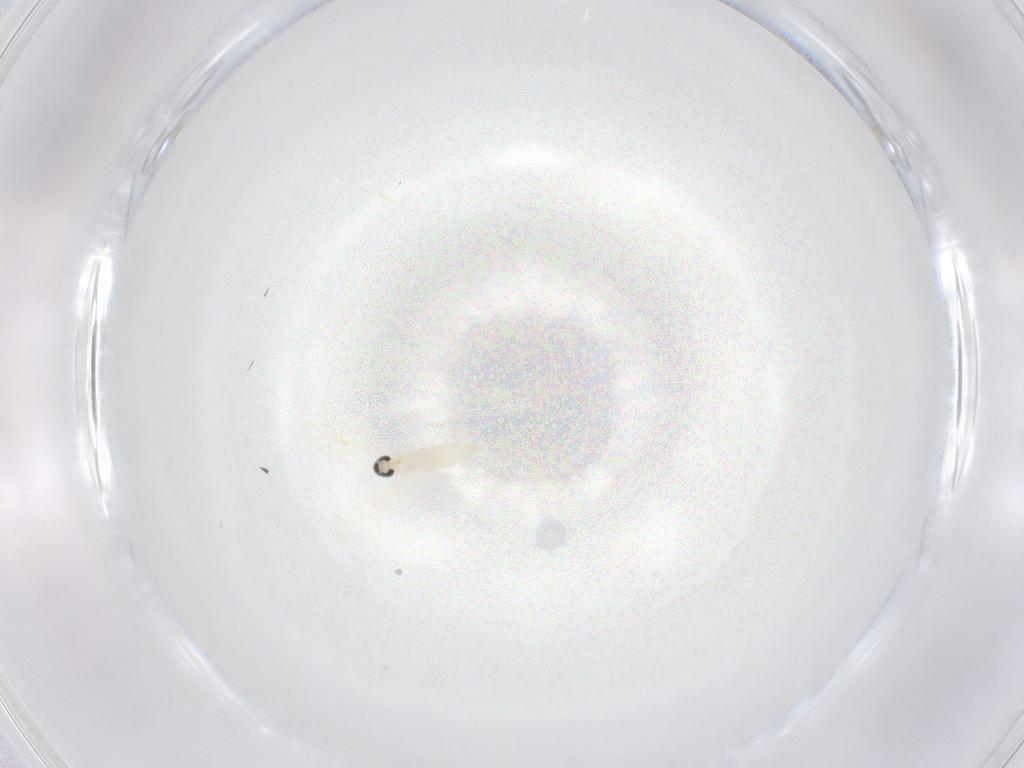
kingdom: Animalia
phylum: Arthropoda
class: Insecta
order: Diptera
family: Cecidomyiidae
